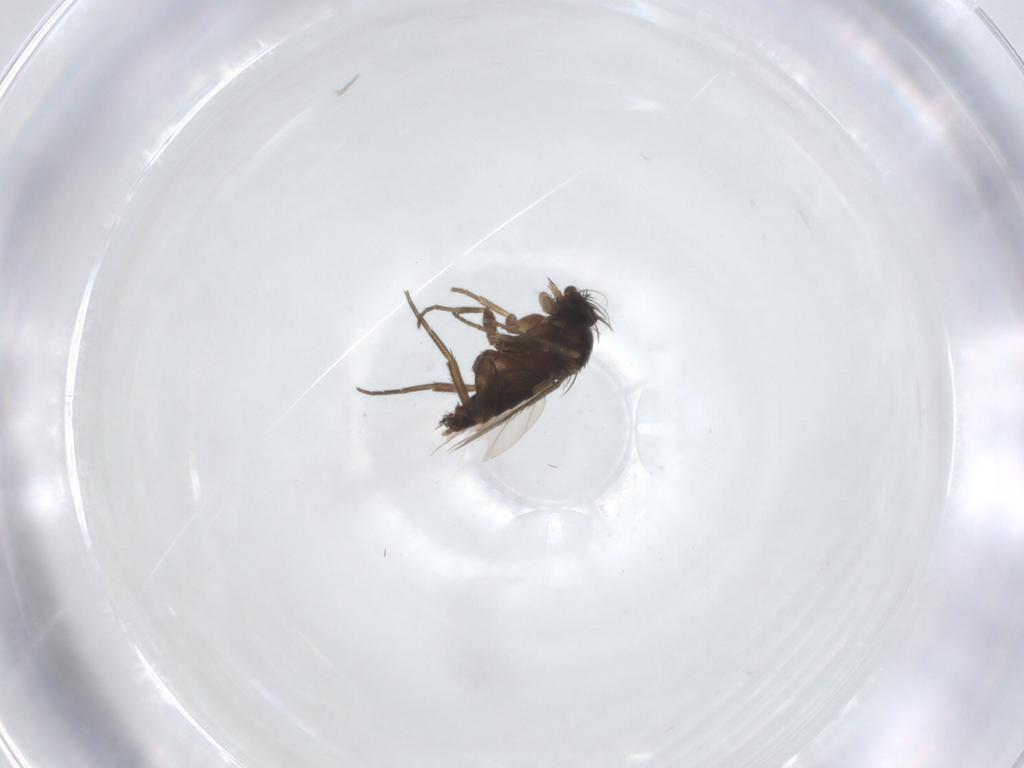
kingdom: Animalia
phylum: Arthropoda
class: Insecta
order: Diptera
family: Phoridae
